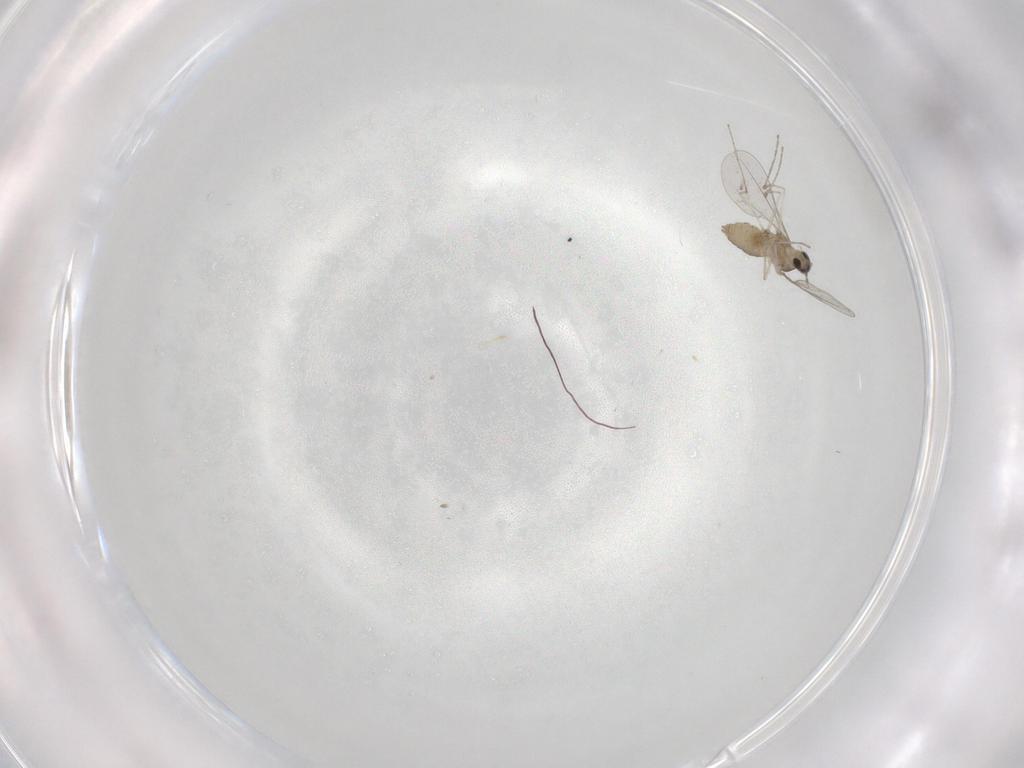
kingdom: Animalia
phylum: Arthropoda
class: Insecta
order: Diptera
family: Cecidomyiidae
